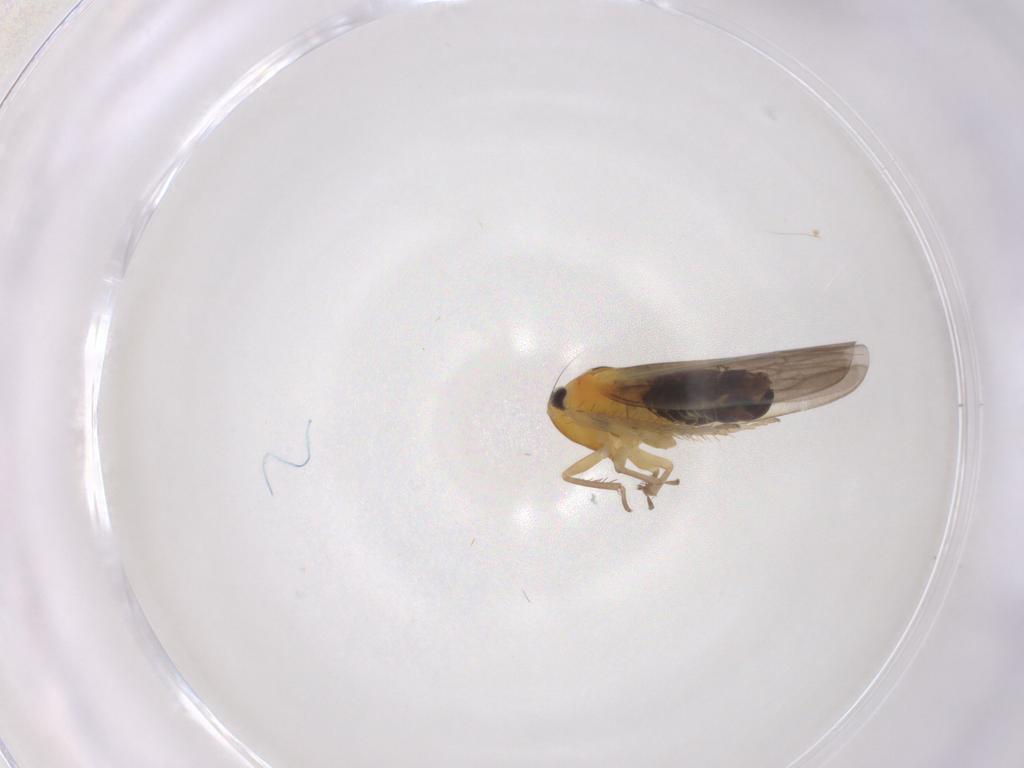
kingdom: Animalia
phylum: Arthropoda
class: Insecta
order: Hemiptera
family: Cicadellidae
